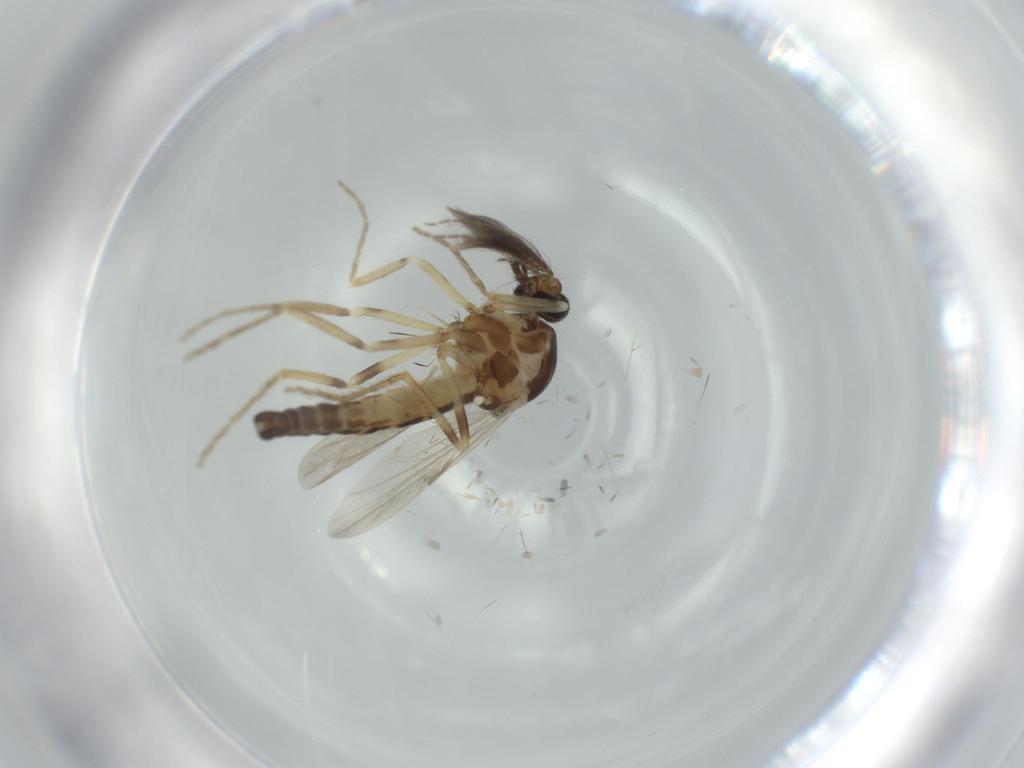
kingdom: Animalia
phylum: Arthropoda
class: Insecta
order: Diptera
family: Ceratopogonidae
